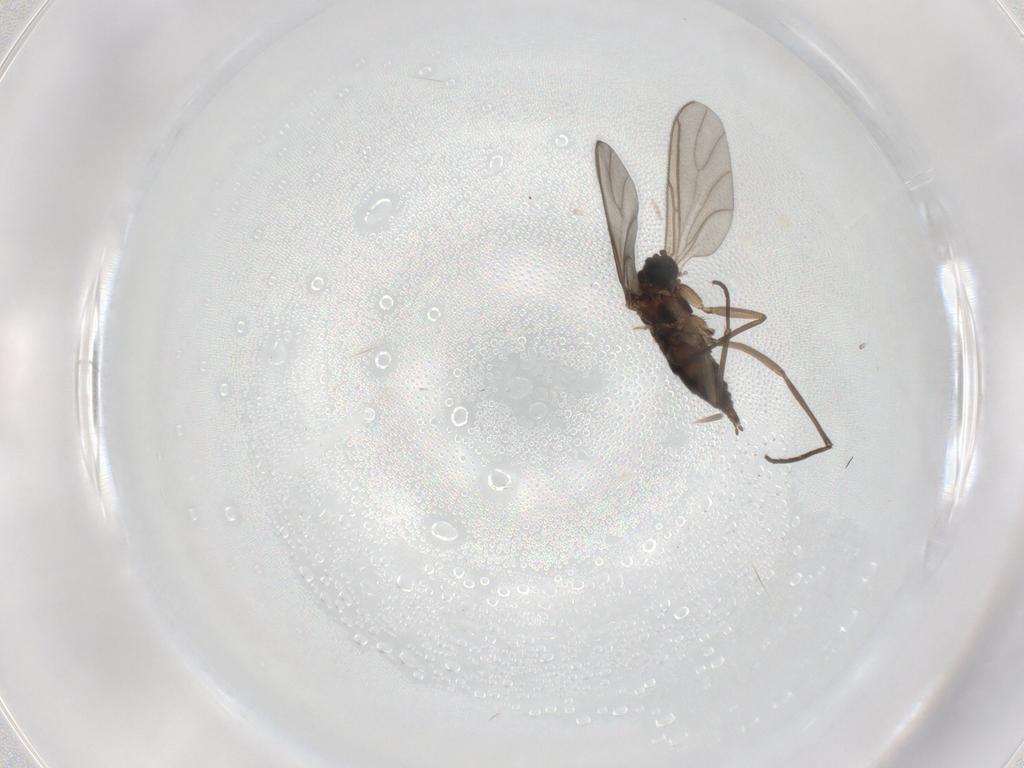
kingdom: Animalia
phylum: Arthropoda
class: Insecta
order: Diptera
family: Sciaridae
